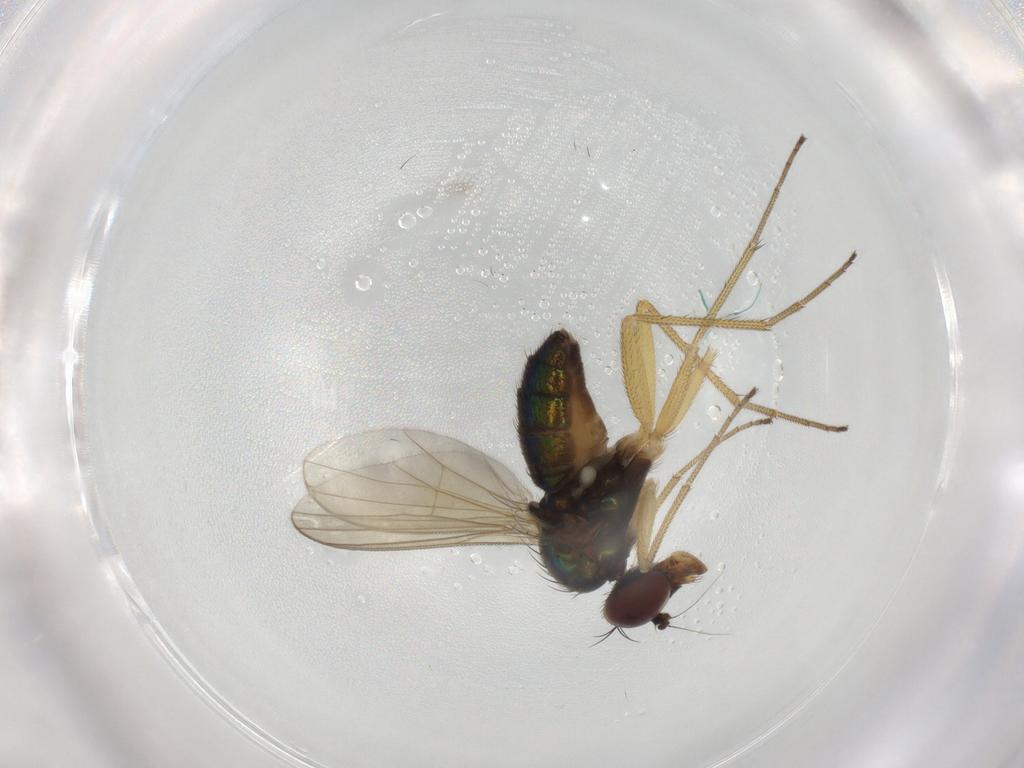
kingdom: Animalia
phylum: Arthropoda
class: Insecta
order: Diptera
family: Dolichopodidae
